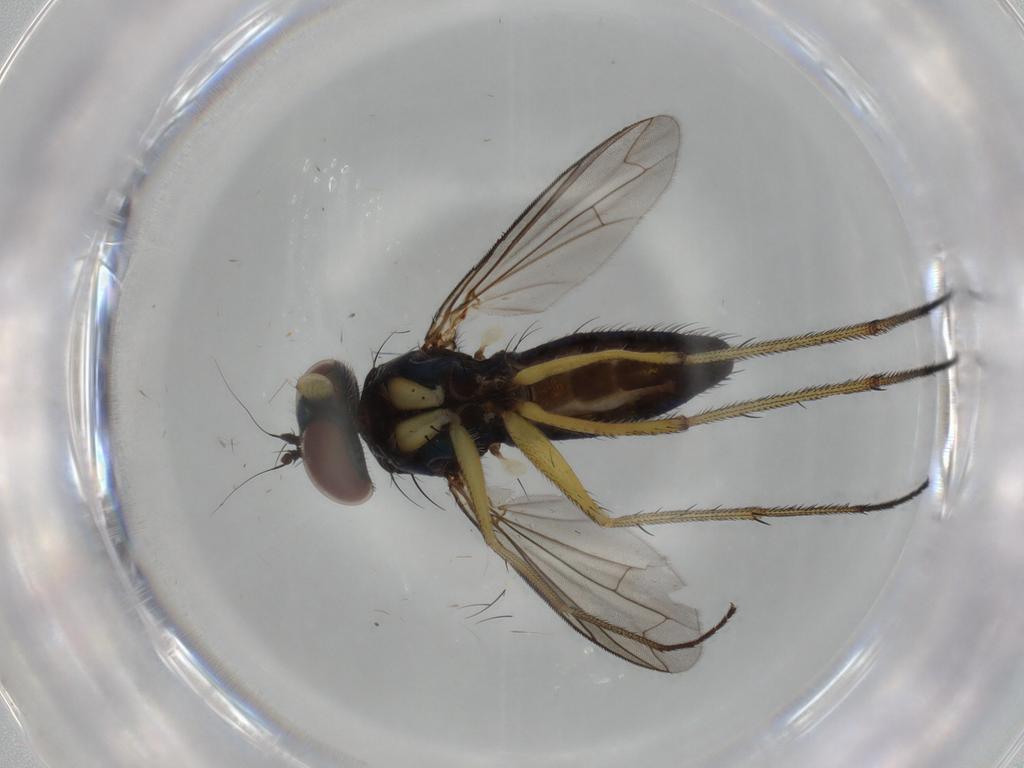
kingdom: Animalia
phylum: Arthropoda
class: Insecta
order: Diptera
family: Dolichopodidae
